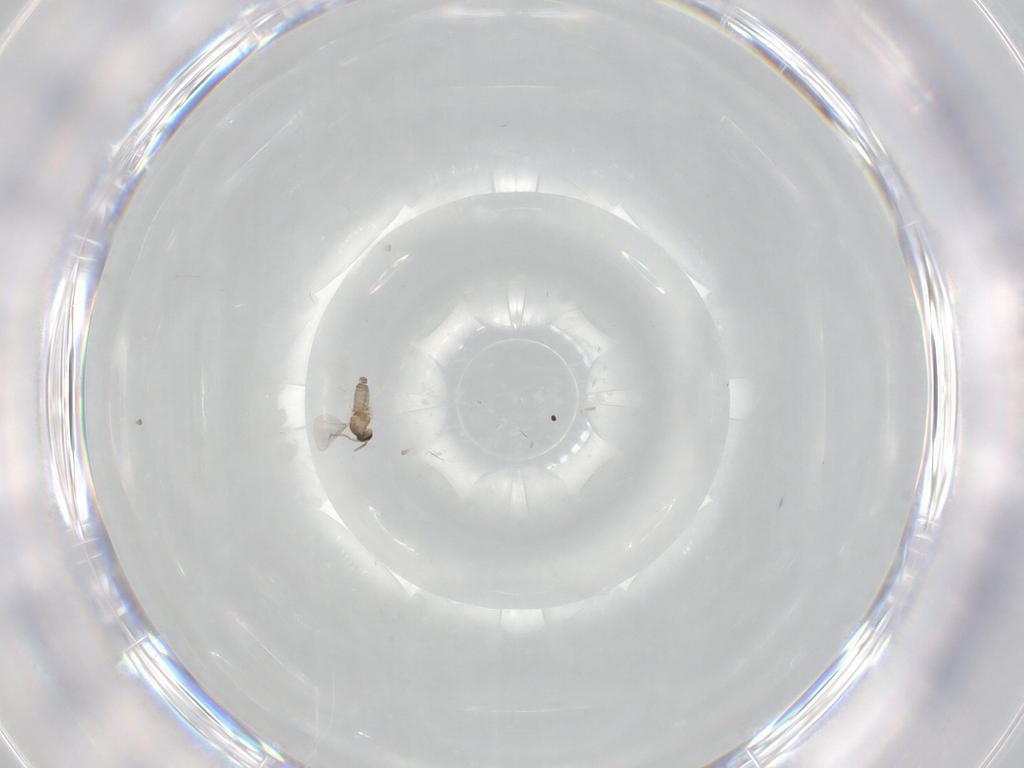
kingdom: Animalia
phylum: Arthropoda
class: Insecta
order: Diptera
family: Cecidomyiidae
